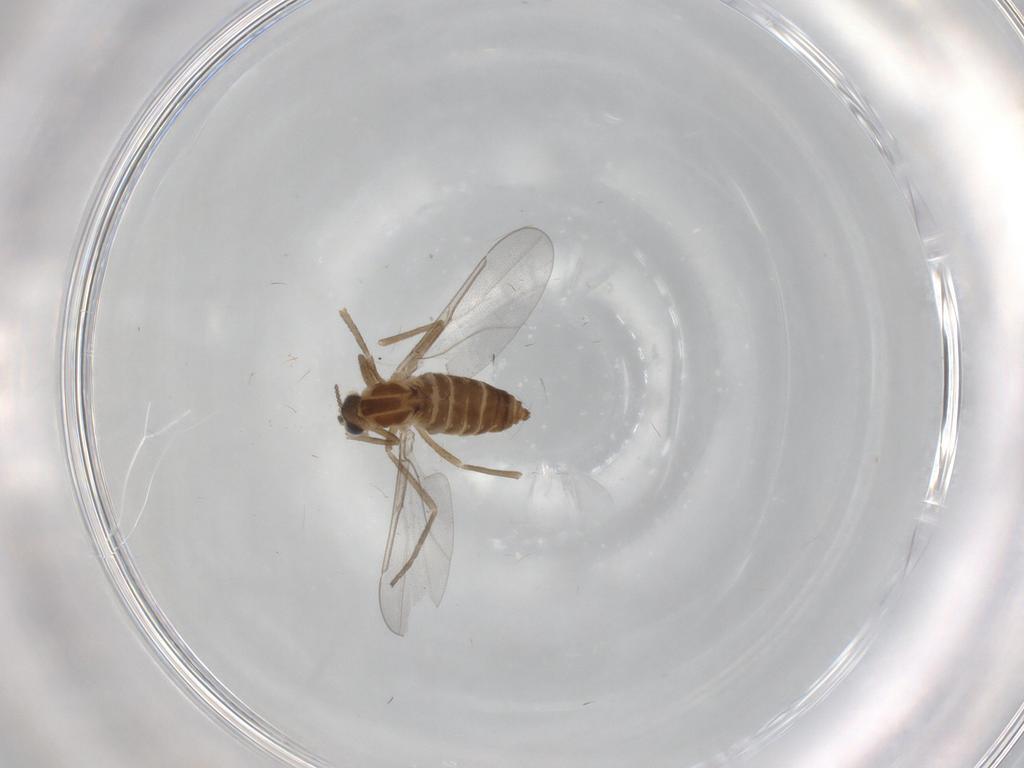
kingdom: Animalia
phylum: Arthropoda
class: Insecta
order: Diptera
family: Cecidomyiidae
